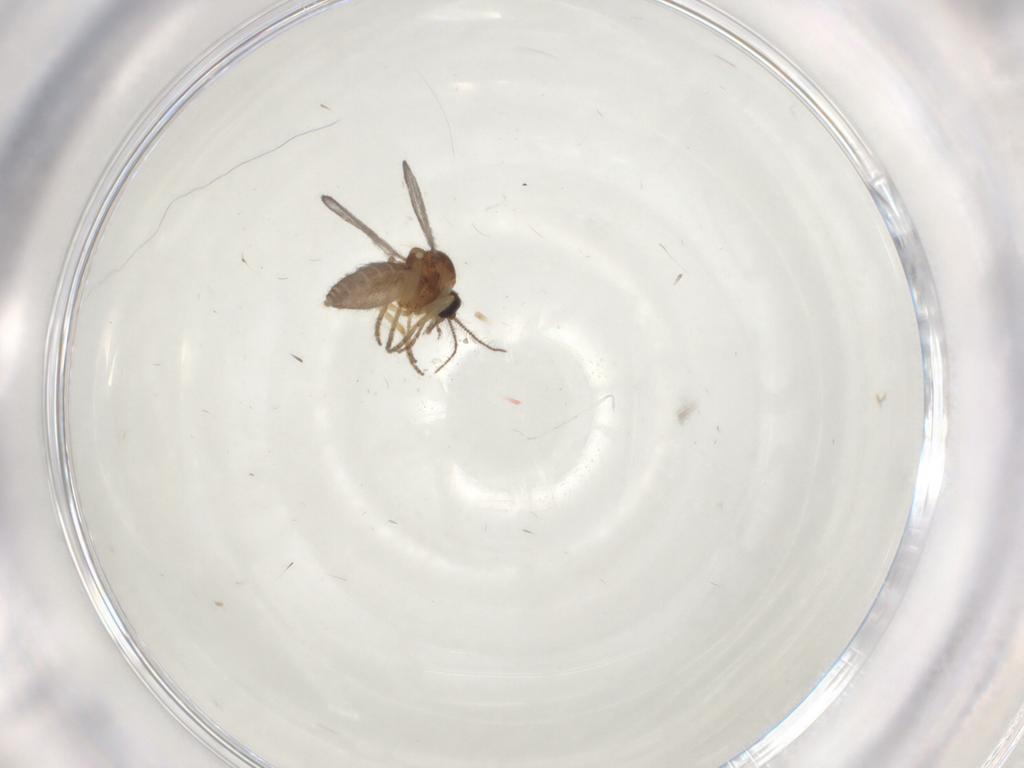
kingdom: Animalia
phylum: Arthropoda
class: Insecta
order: Diptera
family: Ceratopogonidae
